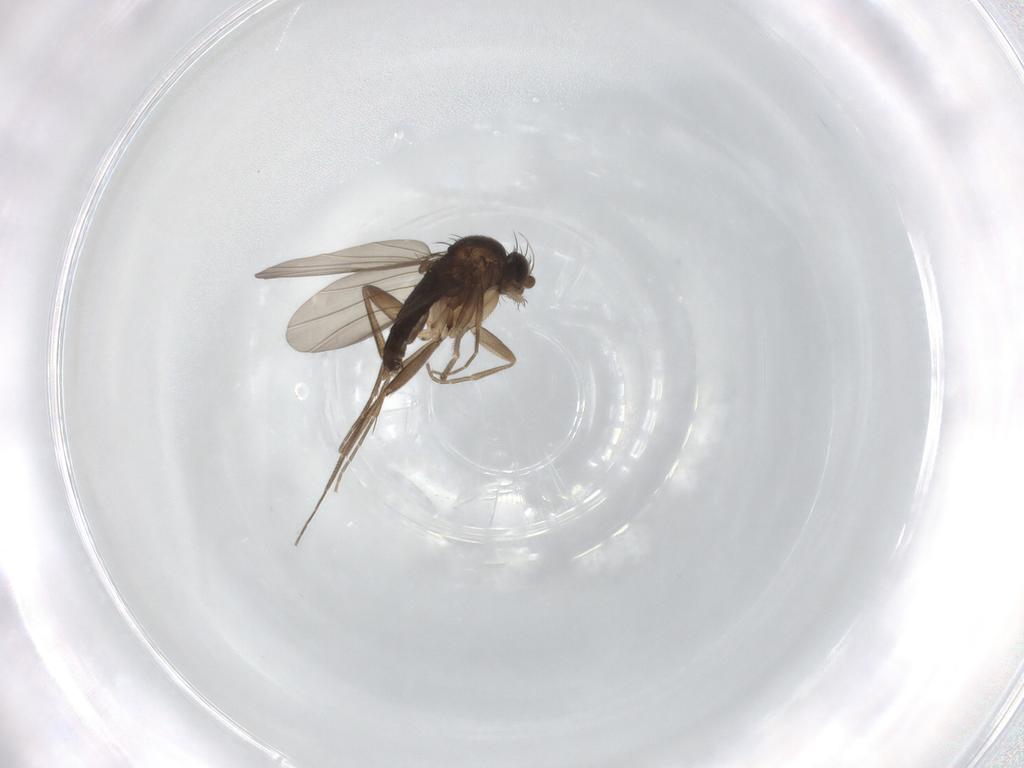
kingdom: Animalia
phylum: Arthropoda
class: Insecta
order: Diptera
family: Phoridae
